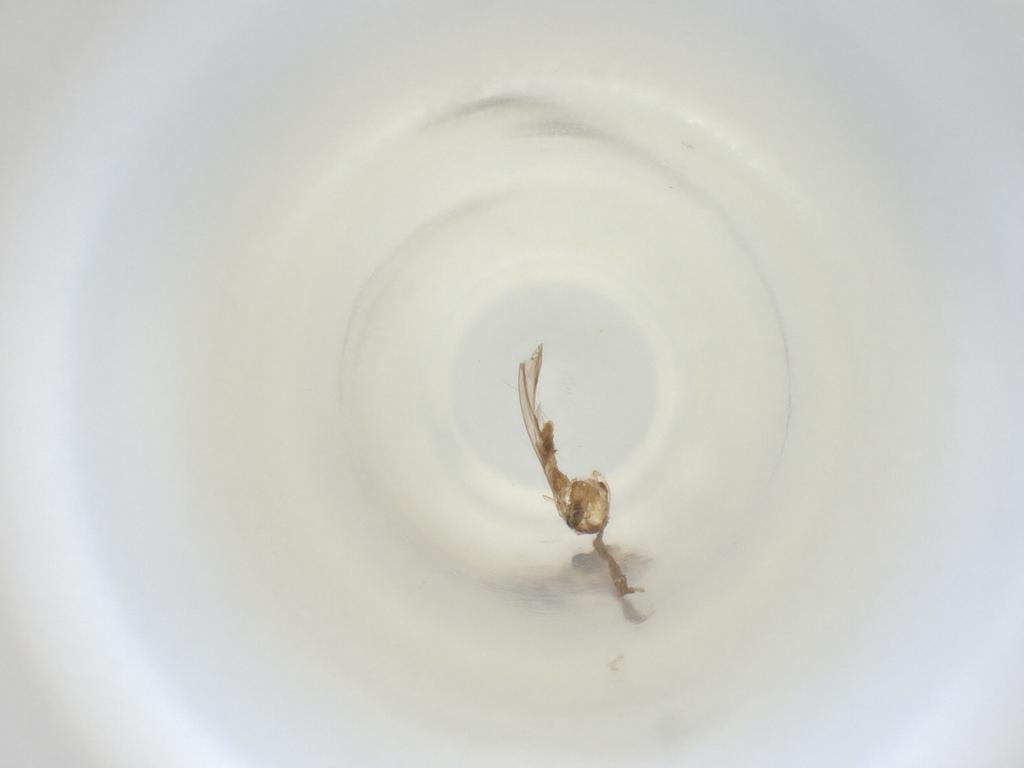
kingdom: Animalia
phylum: Arthropoda
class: Insecta
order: Diptera
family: Cecidomyiidae
